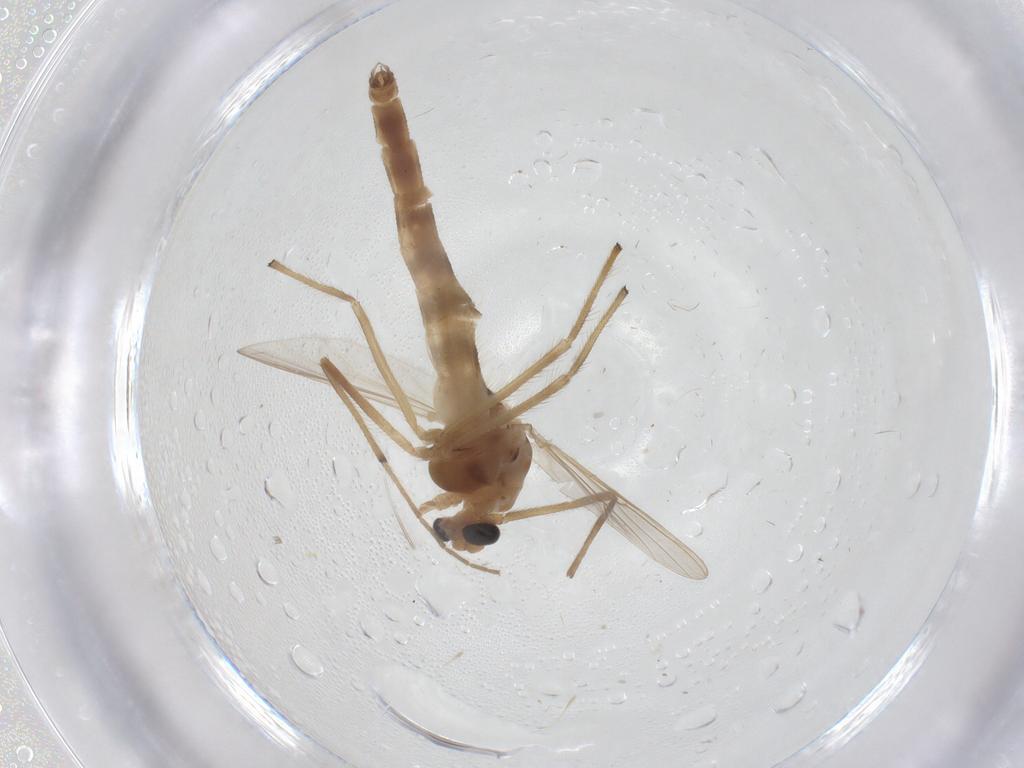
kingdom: Animalia
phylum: Arthropoda
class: Insecta
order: Diptera
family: Chironomidae
